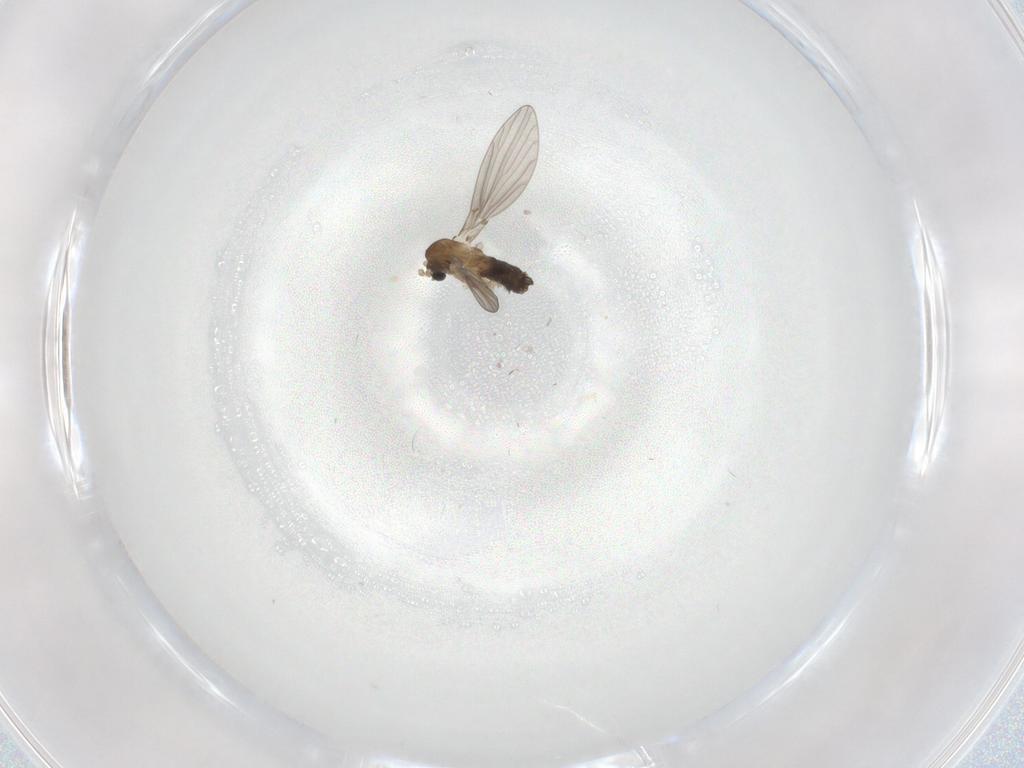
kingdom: Animalia
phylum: Arthropoda
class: Insecta
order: Diptera
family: Psychodidae
